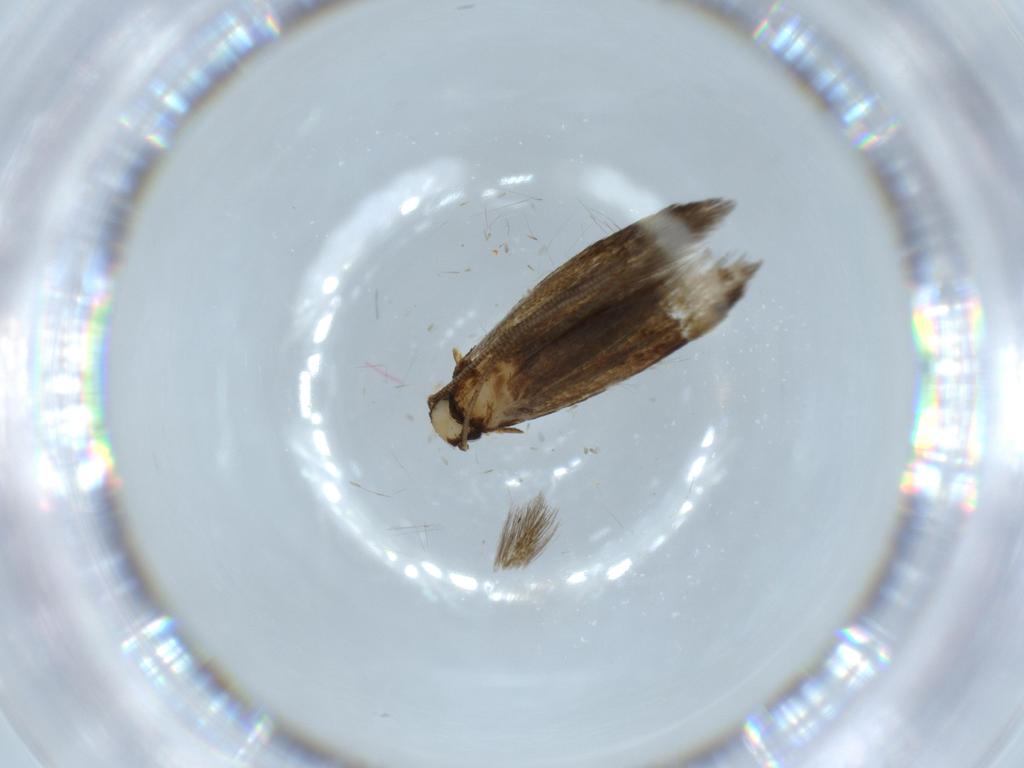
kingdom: Animalia
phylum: Arthropoda
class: Insecta
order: Lepidoptera
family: Tineidae
